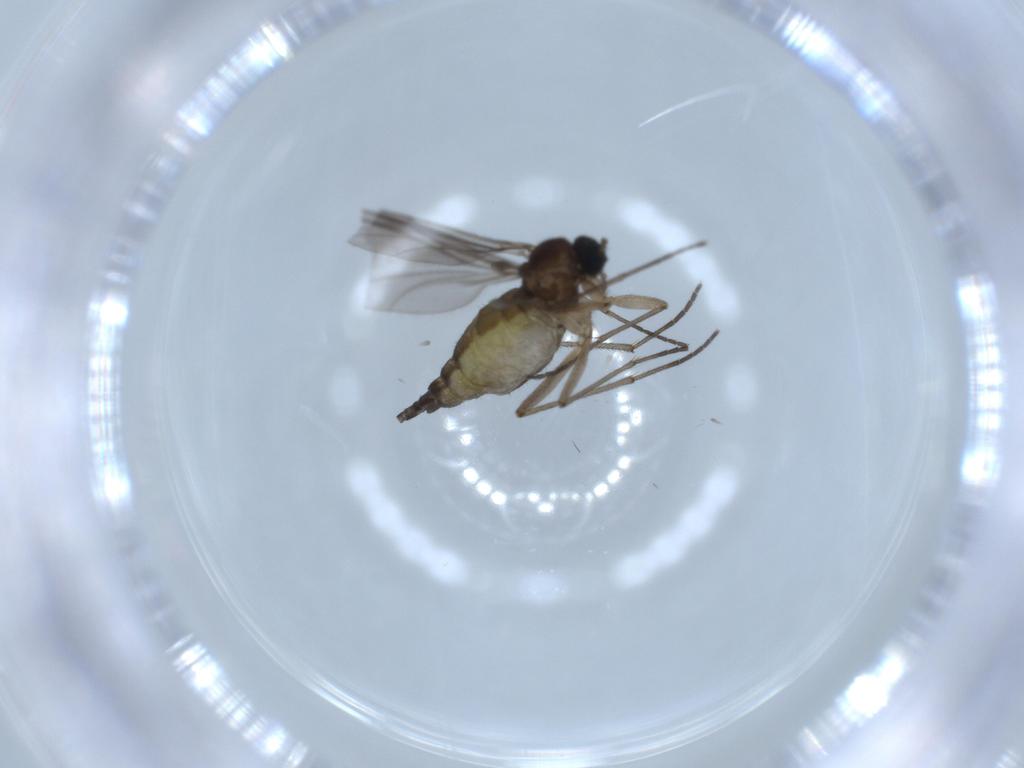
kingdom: Animalia
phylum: Arthropoda
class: Insecta
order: Diptera
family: Sciaridae
